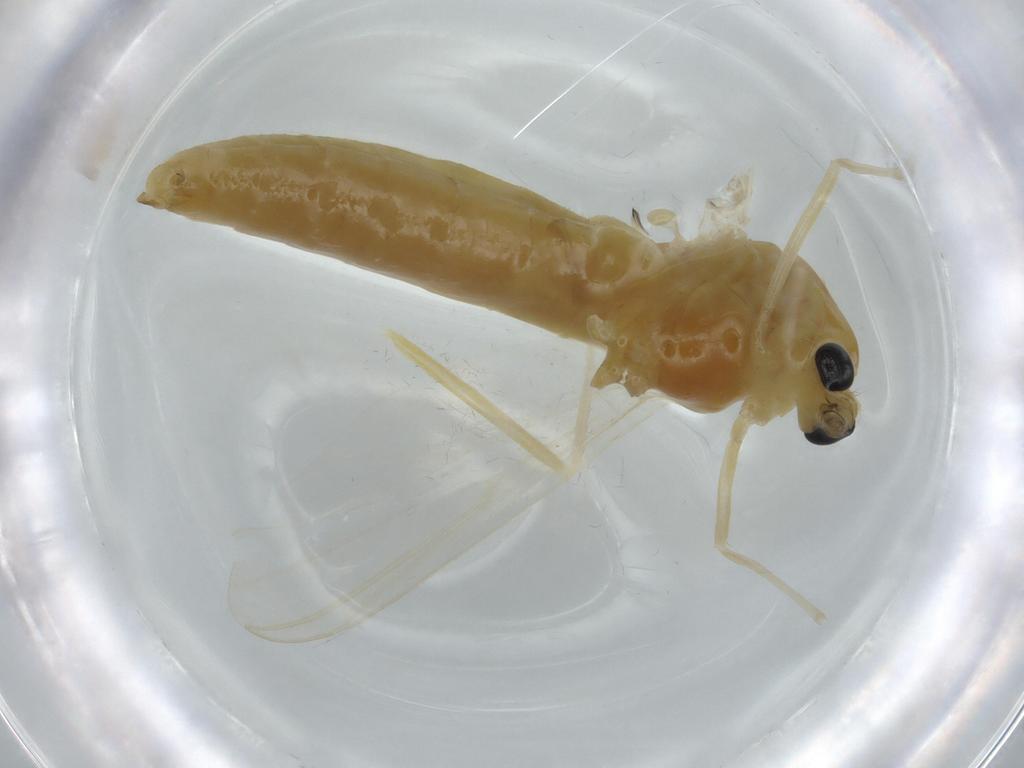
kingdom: Animalia
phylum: Arthropoda
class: Insecta
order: Diptera
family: Chironomidae
